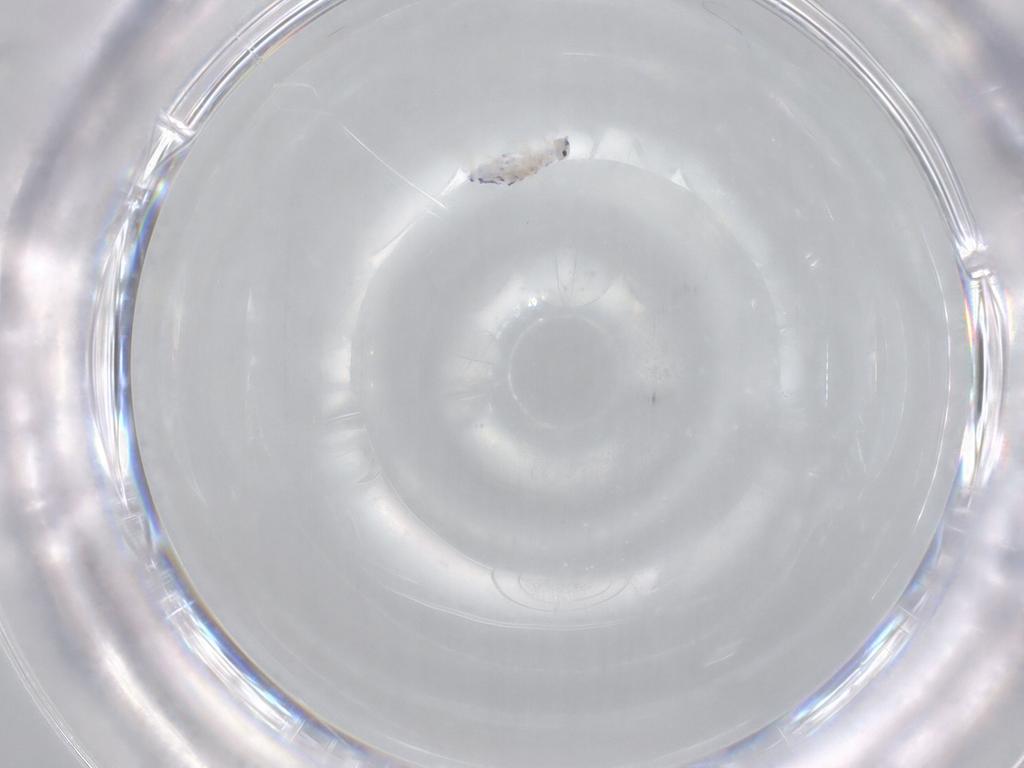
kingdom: Animalia
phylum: Arthropoda
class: Collembola
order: Entomobryomorpha
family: Entomobryidae
